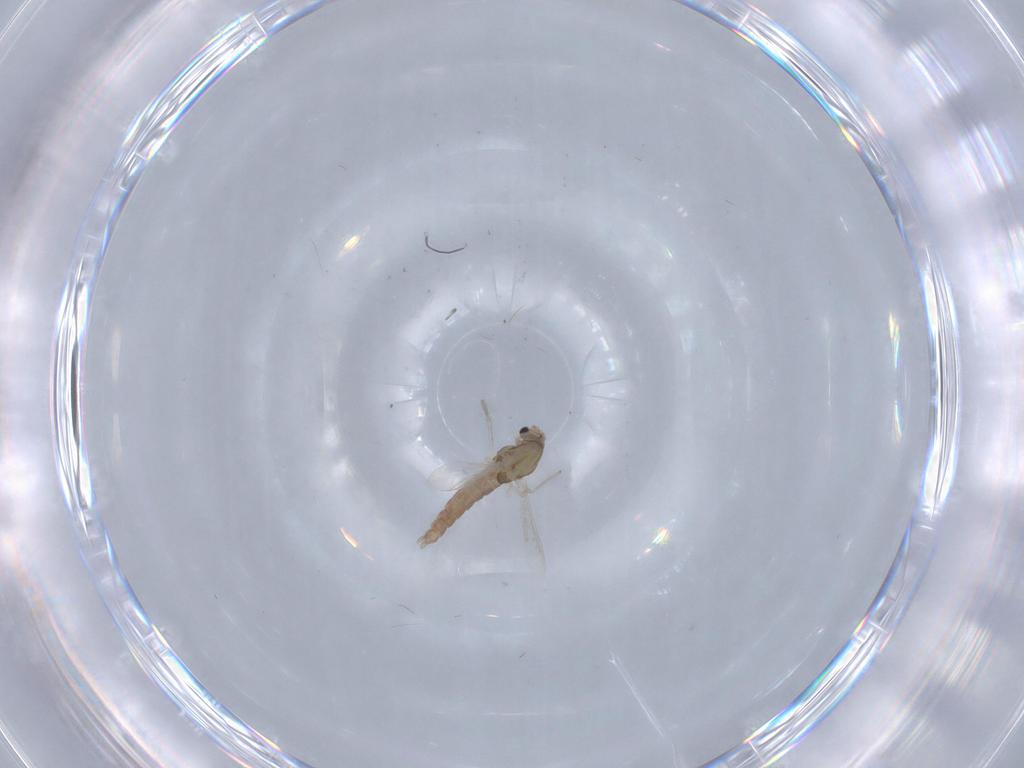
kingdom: Animalia
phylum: Arthropoda
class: Insecta
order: Diptera
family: Chironomidae
